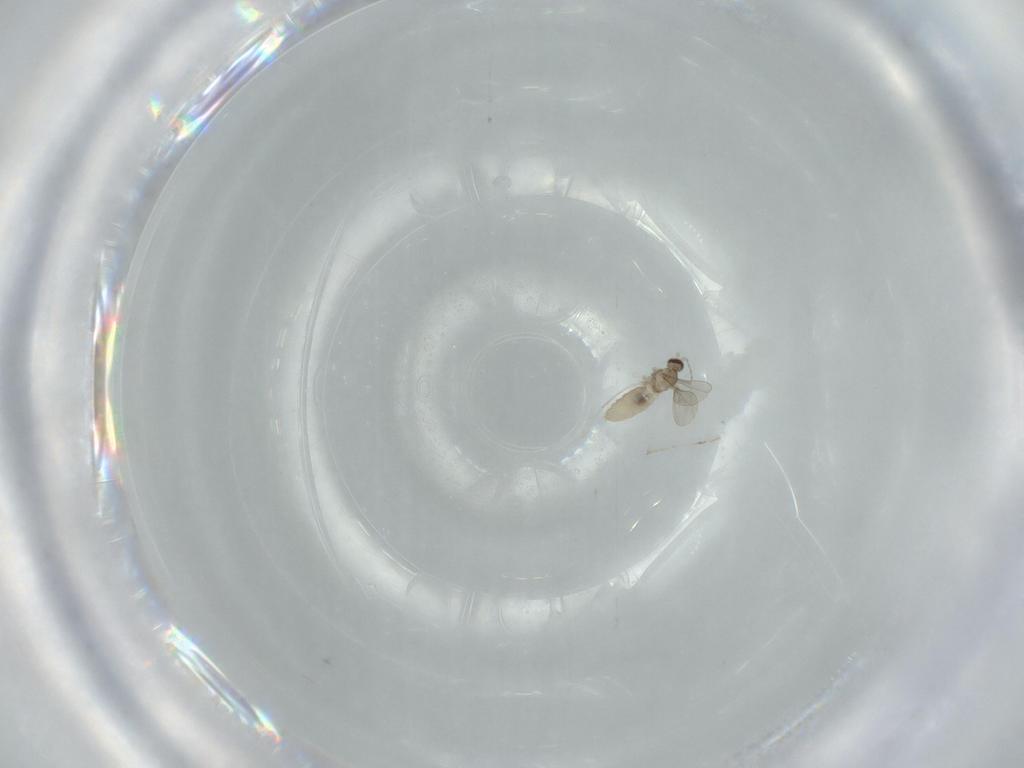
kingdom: Animalia
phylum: Arthropoda
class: Insecta
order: Diptera
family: Cecidomyiidae
